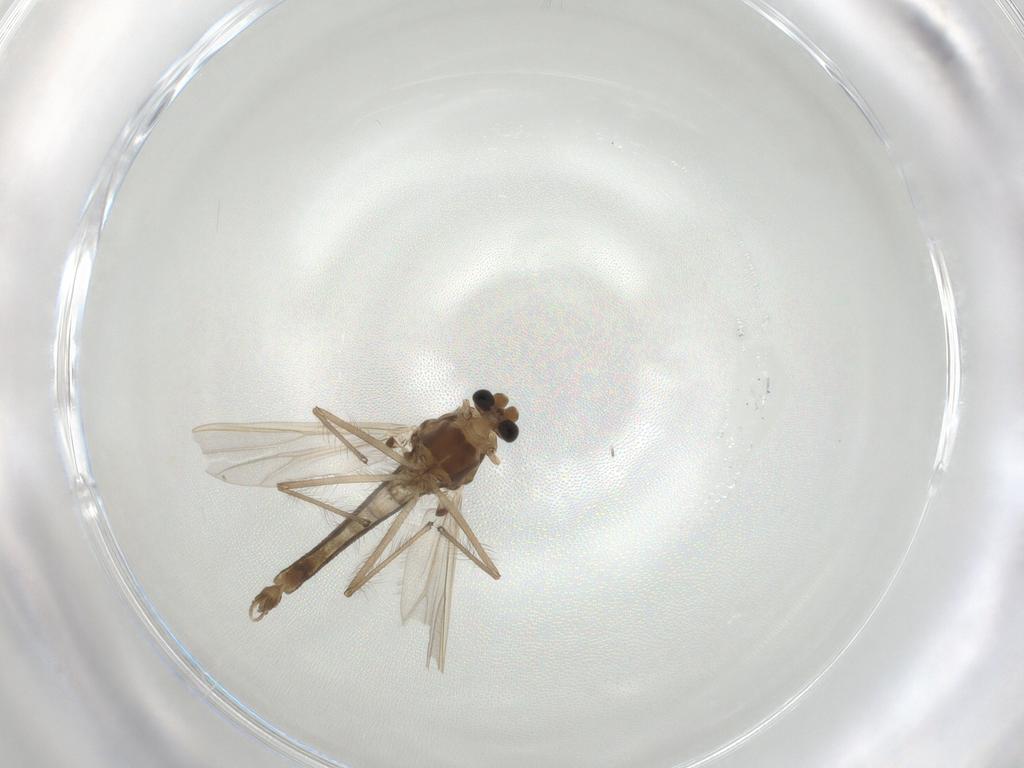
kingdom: Animalia
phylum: Arthropoda
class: Insecta
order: Diptera
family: Chironomidae
